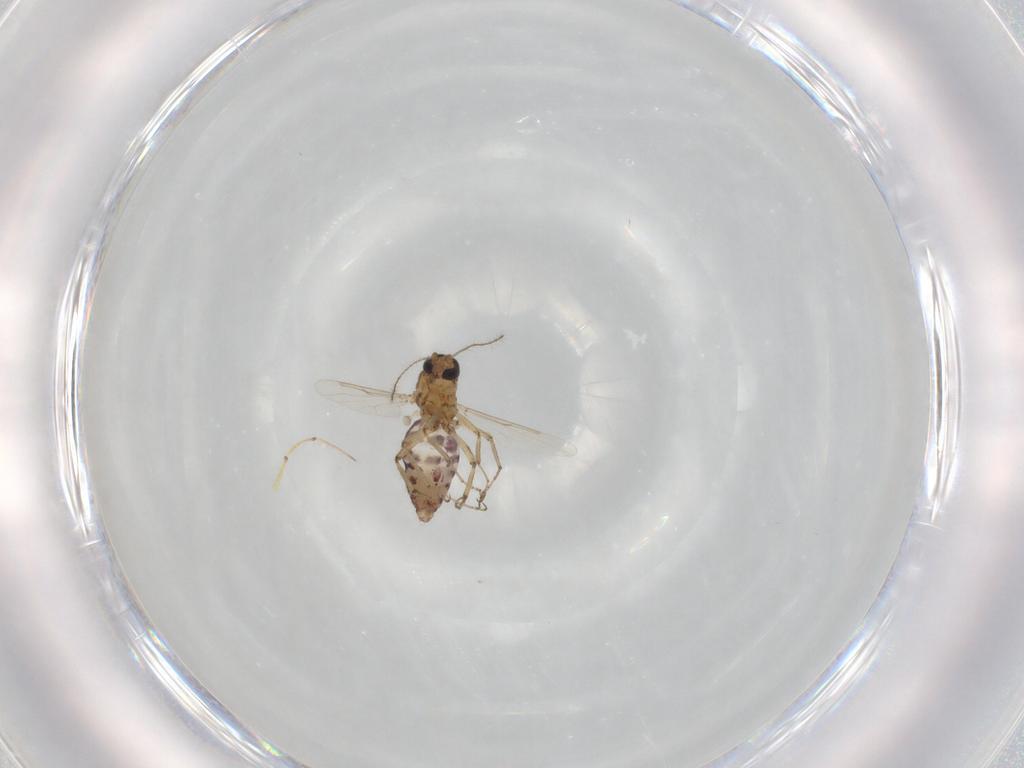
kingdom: Animalia
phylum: Arthropoda
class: Insecta
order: Diptera
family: Ceratopogonidae
